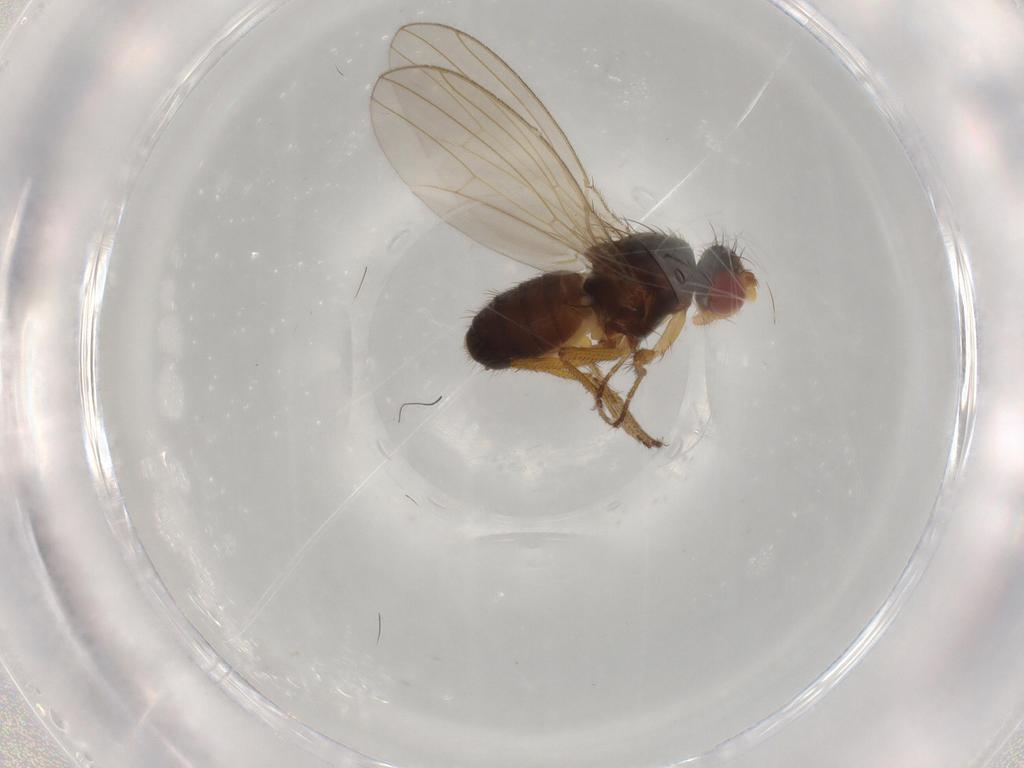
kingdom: Animalia
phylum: Arthropoda
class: Insecta
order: Diptera
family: Drosophilidae
